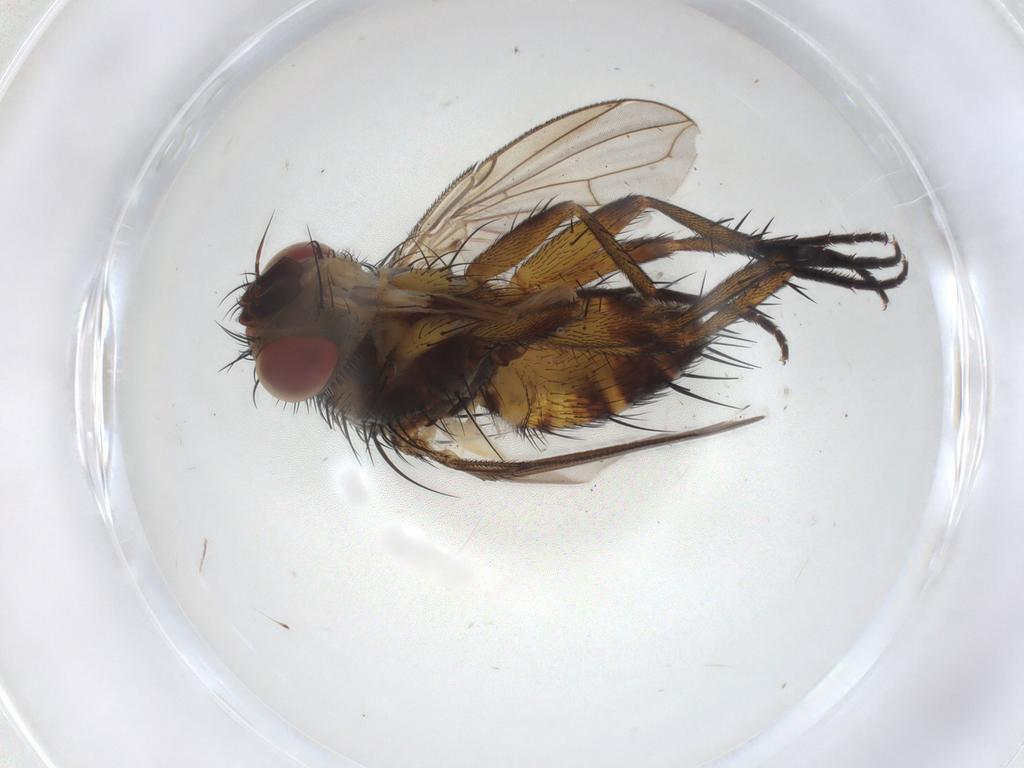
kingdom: Animalia
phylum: Arthropoda
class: Insecta
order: Diptera
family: Tachinidae
